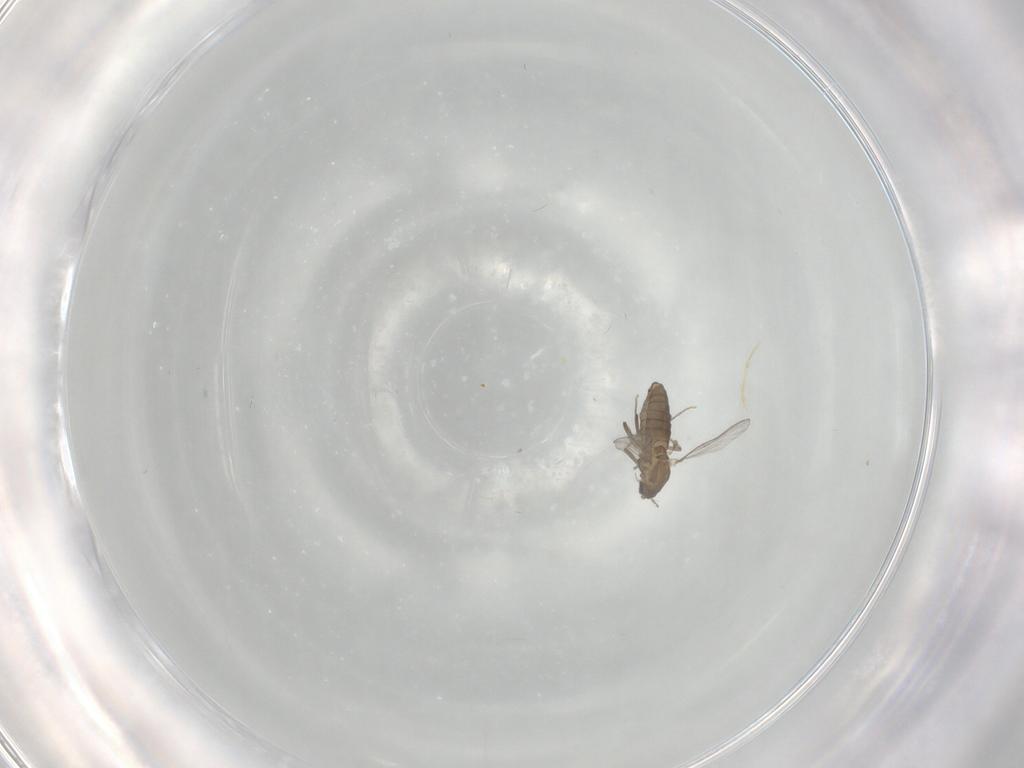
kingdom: Animalia
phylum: Arthropoda
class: Insecta
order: Diptera
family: Chironomidae
